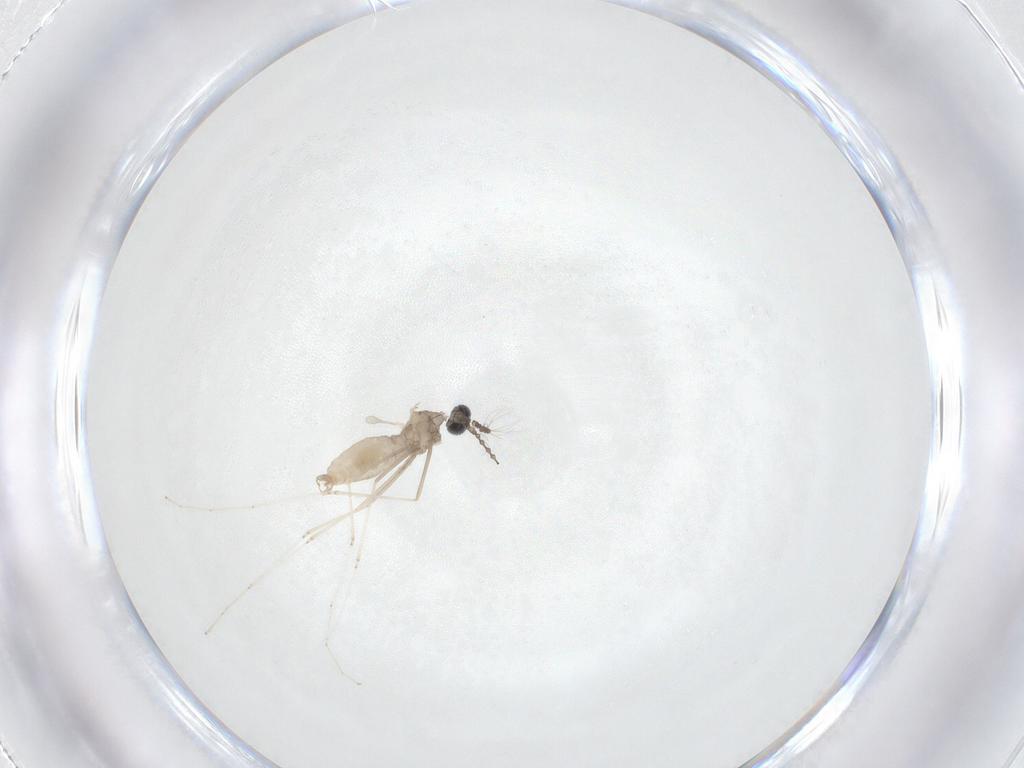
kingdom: Animalia
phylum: Arthropoda
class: Insecta
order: Diptera
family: Cecidomyiidae
